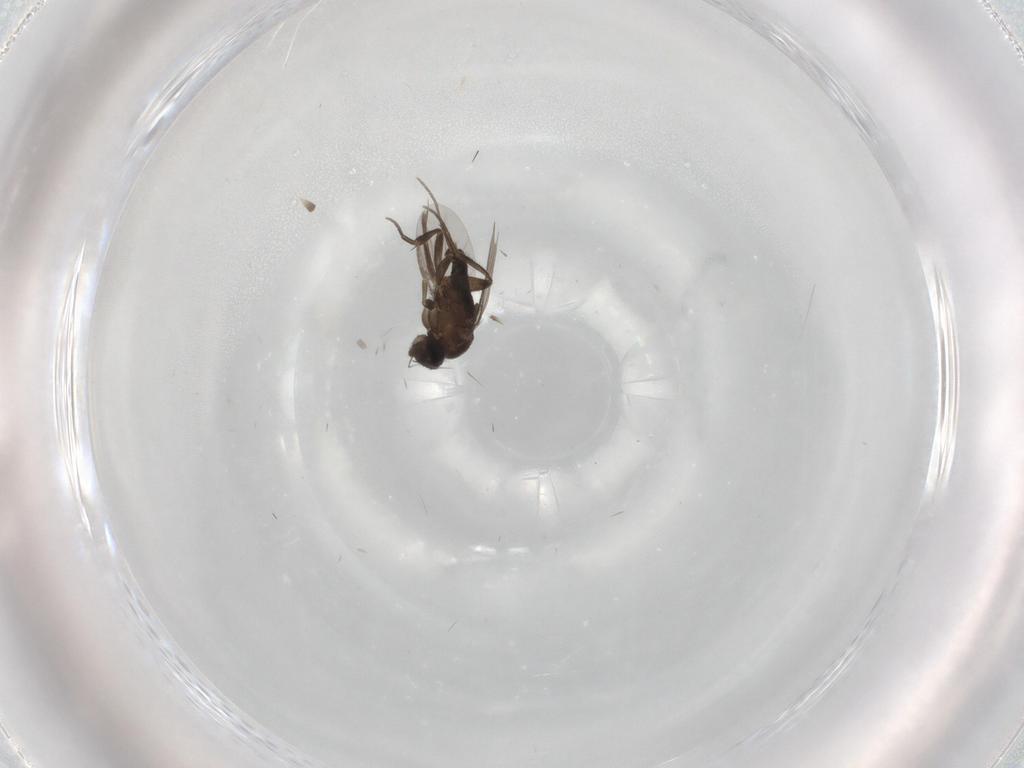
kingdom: Animalia
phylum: Arthropoda
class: Insecta
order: Diptera
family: Phoridae
